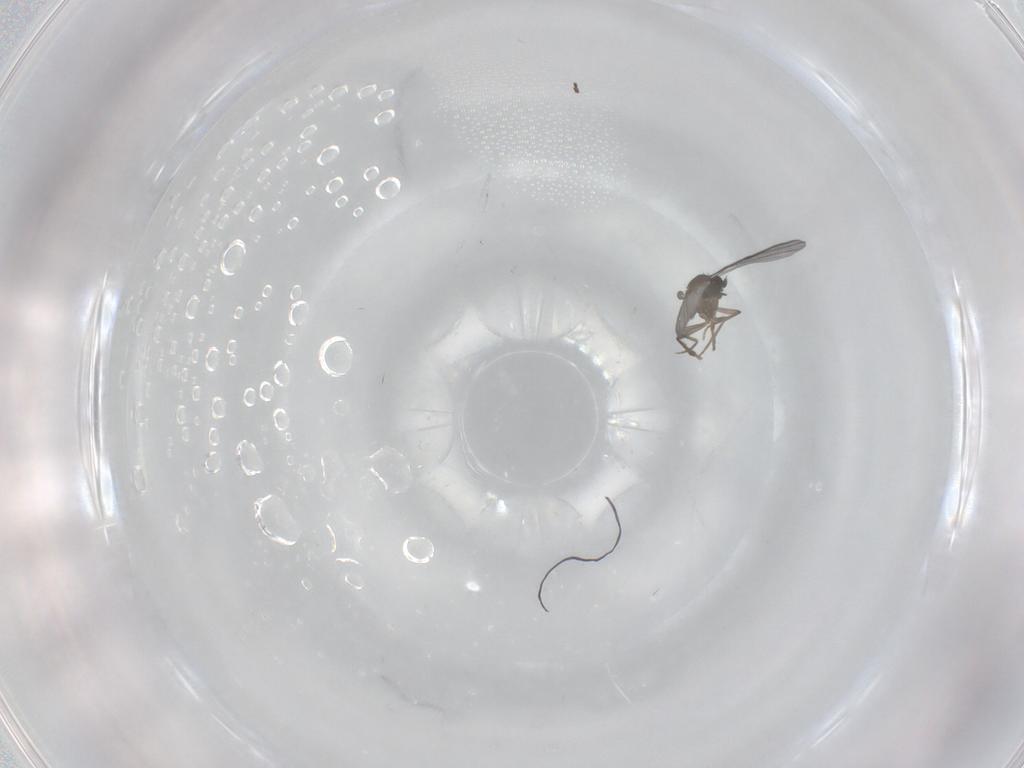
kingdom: Animalia
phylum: Arthropoda
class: Insecta
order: Diptera
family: Phoridae
